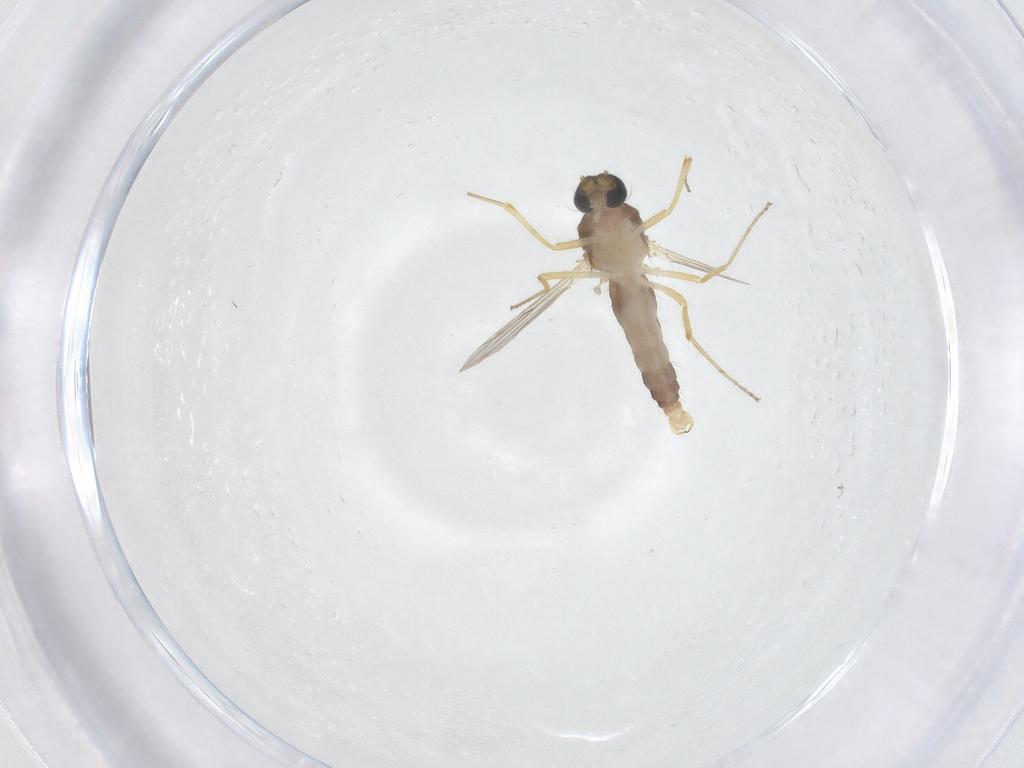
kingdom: Animalia
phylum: Arthropoda
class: Insecta
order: Diptera
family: Ceratopogonidae
